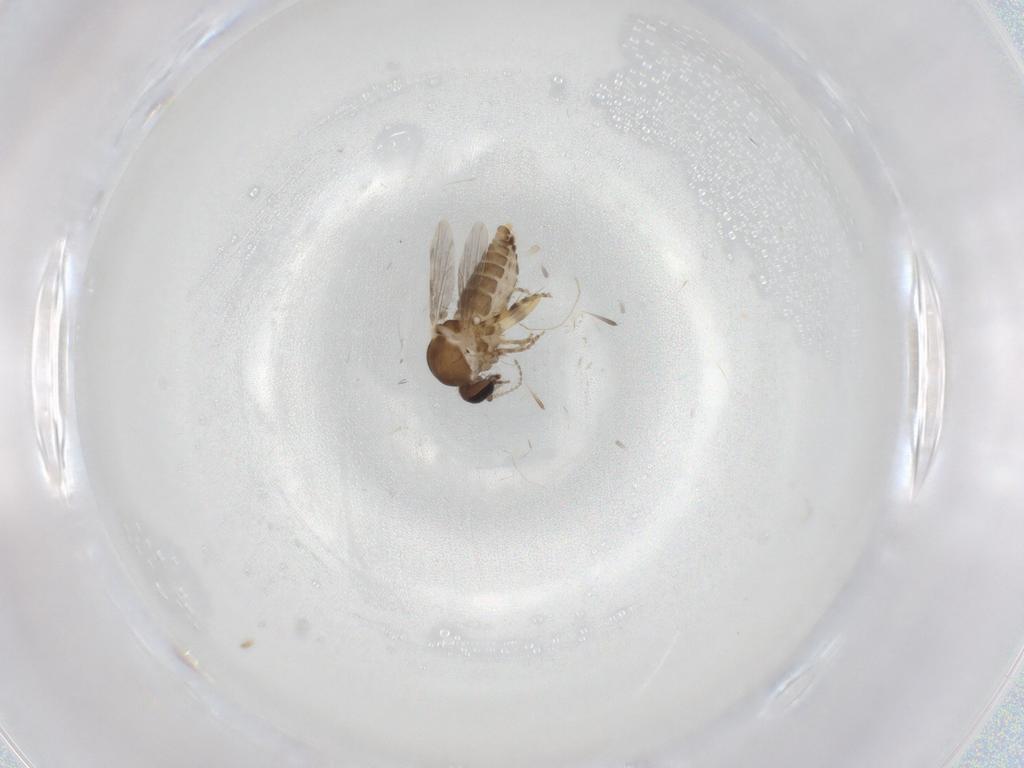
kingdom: Animalia
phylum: Arthropoda
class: Insecta
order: Diptera
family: Ceratopogonidae
